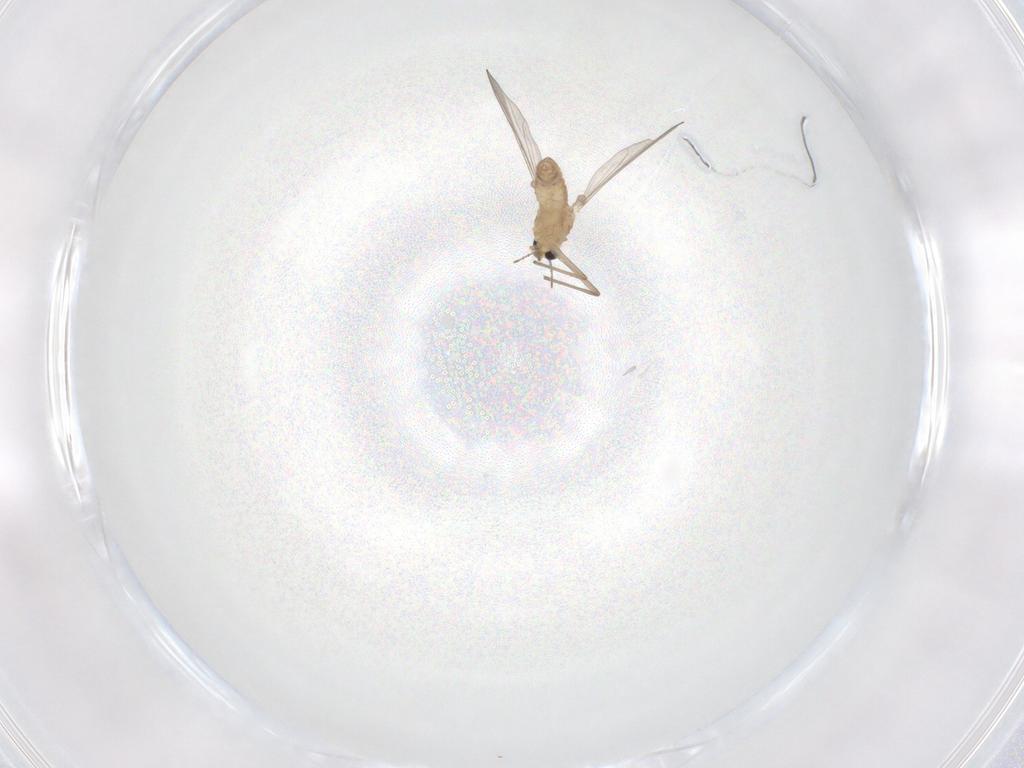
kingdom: Animalia
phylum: Arthropoda
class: Insecta
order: Diptera
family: Chironomidae
